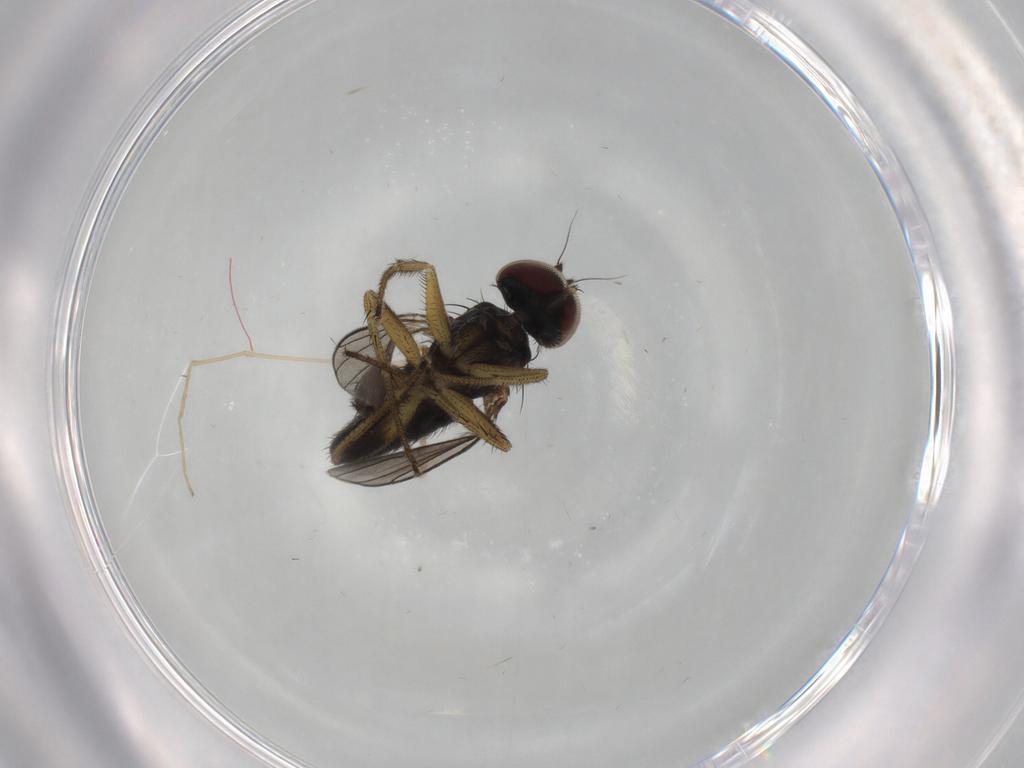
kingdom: Animalia
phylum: Arthropoda
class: Insecta
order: Diptera
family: Dolichopodidae
